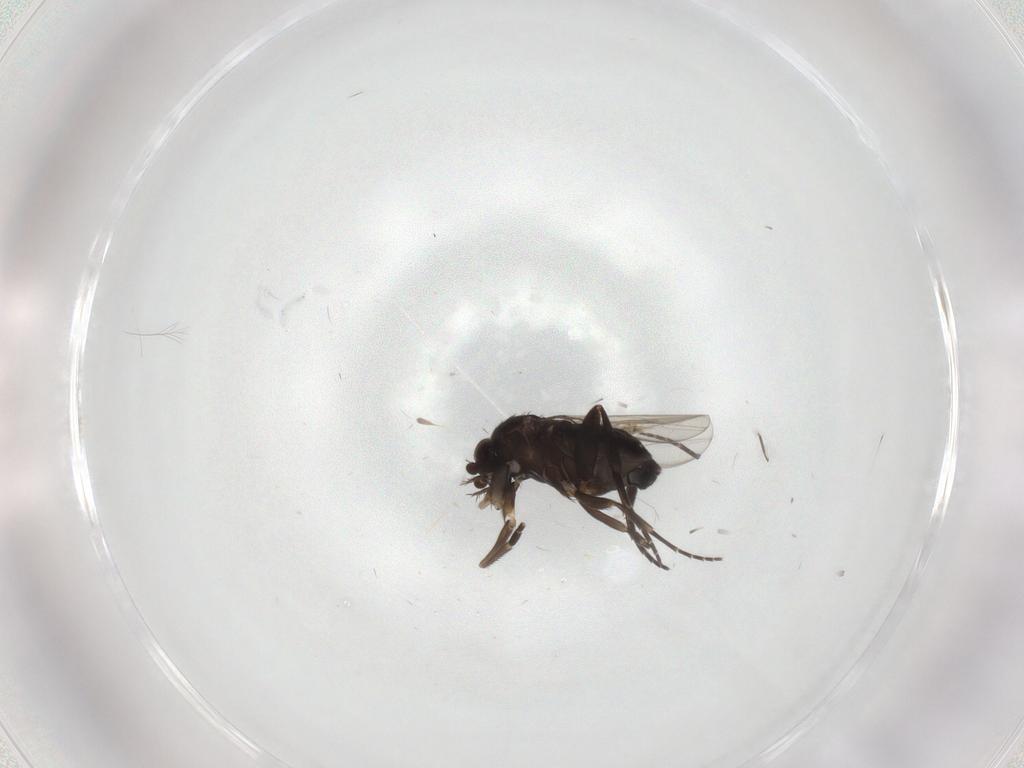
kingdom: Animalia
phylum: Arthropoda
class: Insecta
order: Diptera
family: Phoridae
